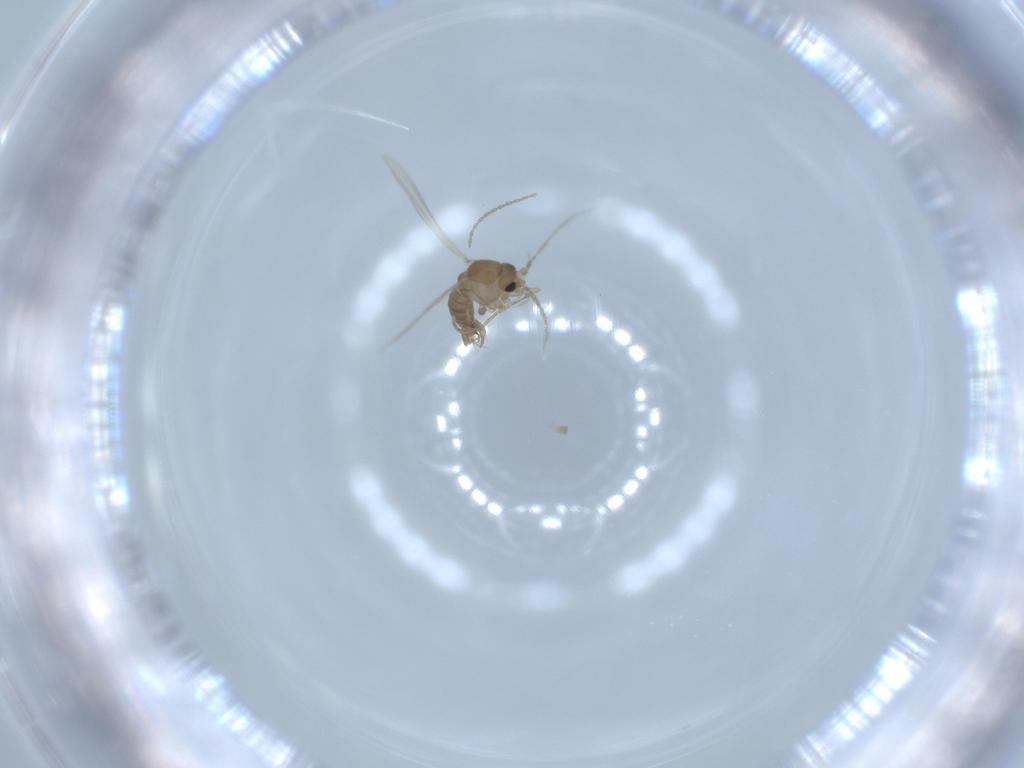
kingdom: Animalia
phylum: Arthropoda
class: Insecta
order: Diptera
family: Psychodidae
